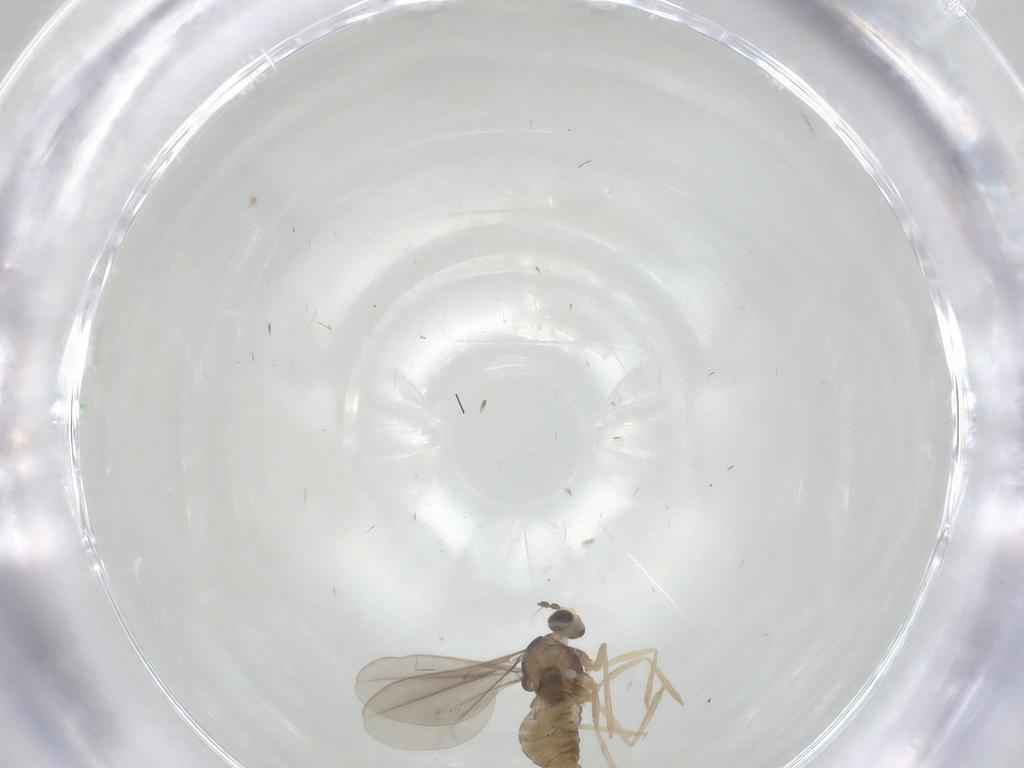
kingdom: Animalia
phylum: Arthropoda
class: Insecta
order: Diptera
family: Cecidomyiidae
